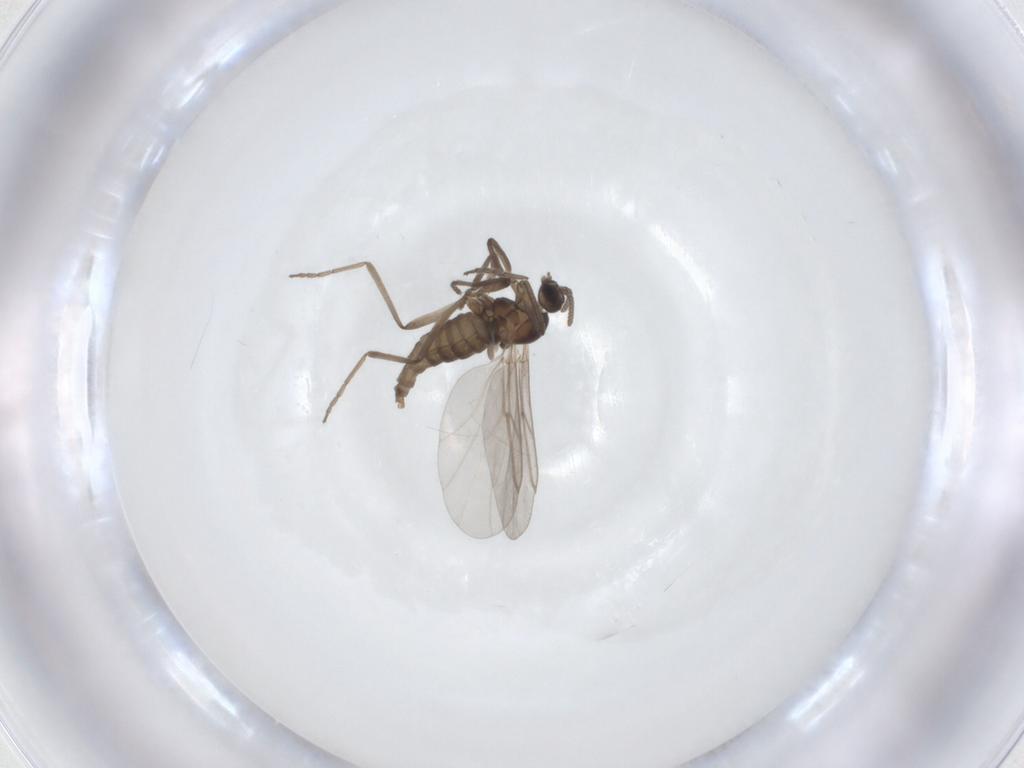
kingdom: Animalia
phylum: Arthropoda
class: Insecta
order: Diptera
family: Cecidomyiidae
